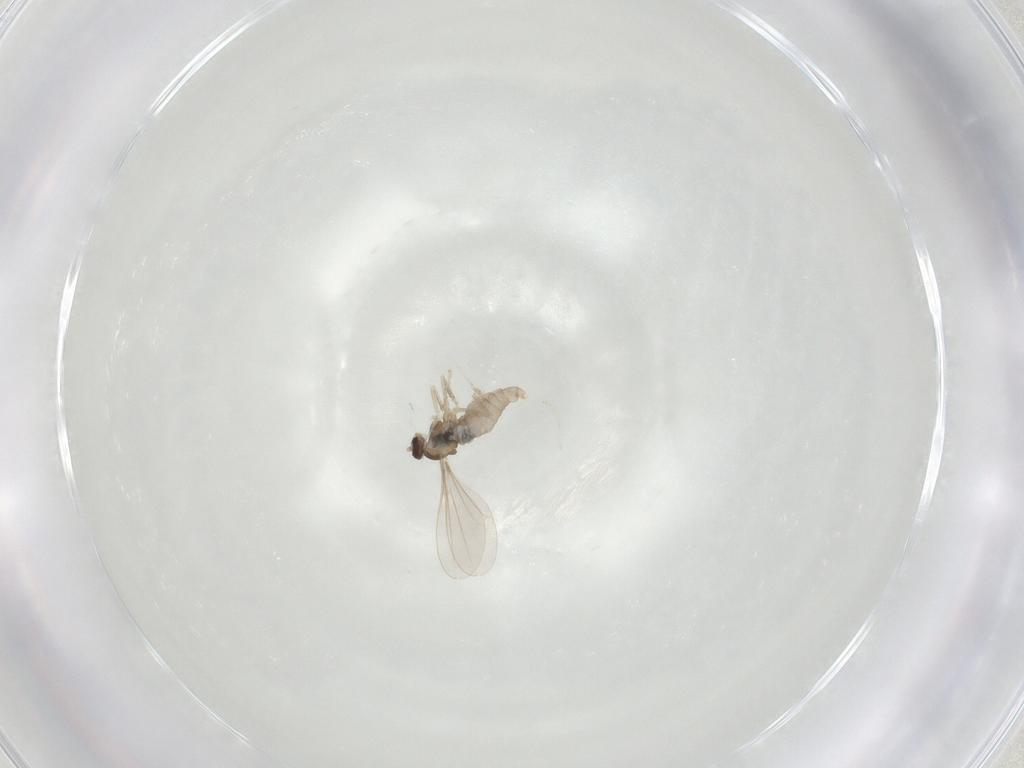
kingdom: Animalia
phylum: Arthropoda
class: Insecta
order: Diptera
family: Cecidomyiidae
